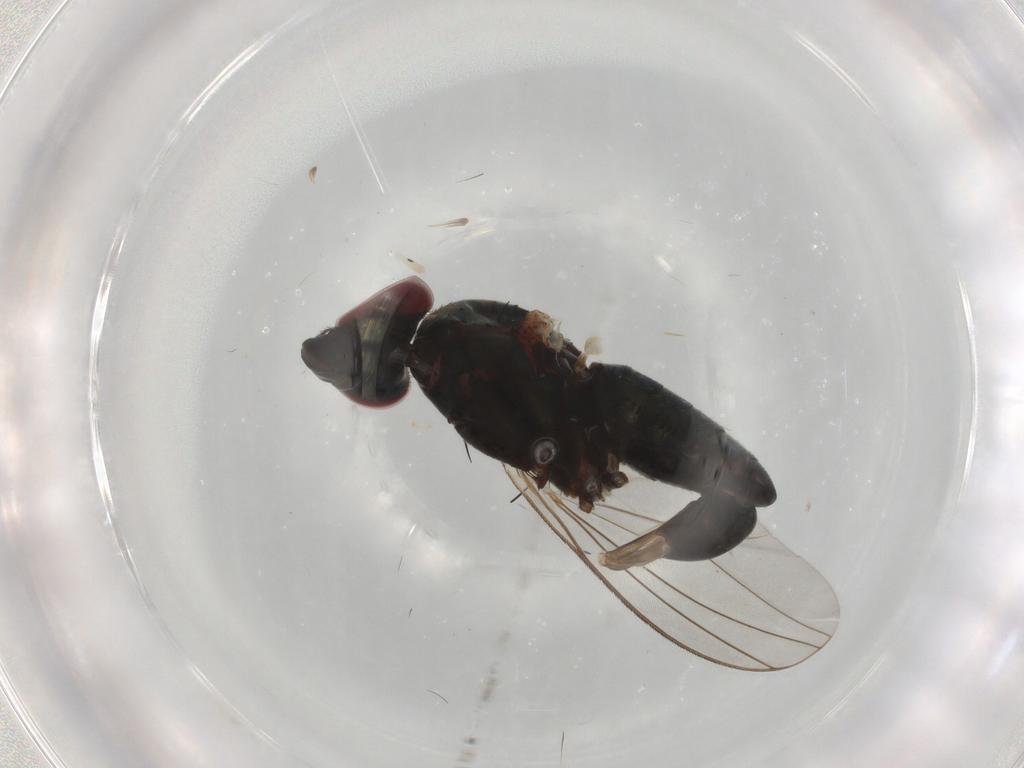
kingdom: Animalia
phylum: Arthropoda
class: Insecta
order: Diptera
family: Dolichopodidae
